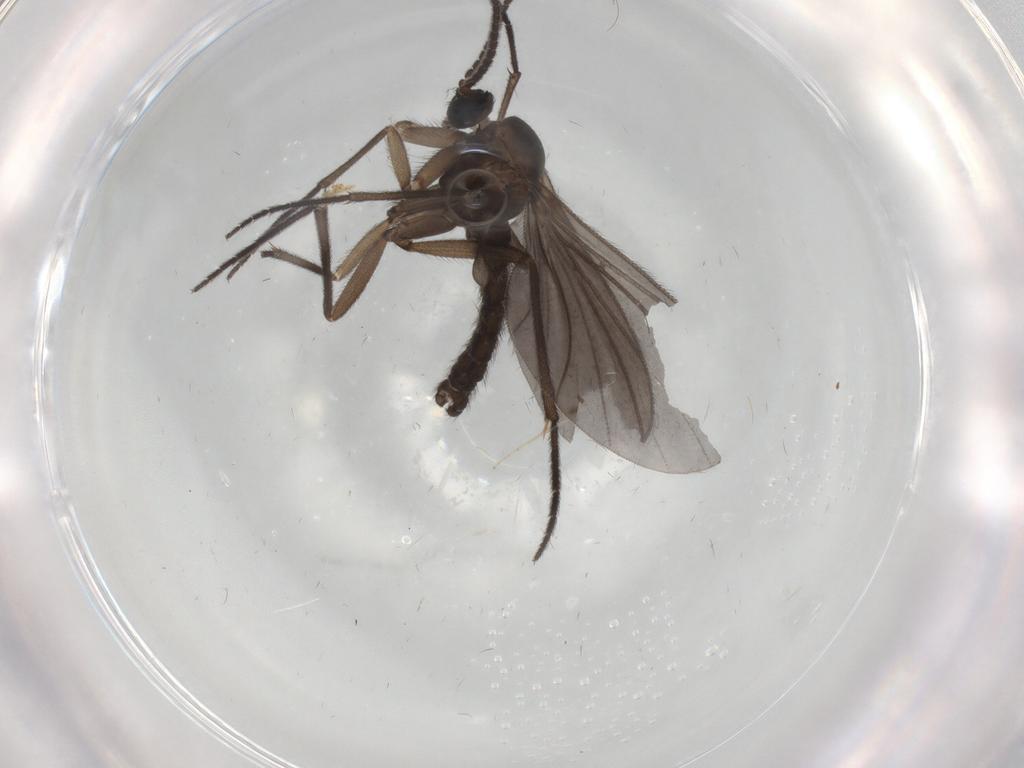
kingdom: Animalia
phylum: Arthropoda
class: Insecta
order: Diptera
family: Sciaridae
